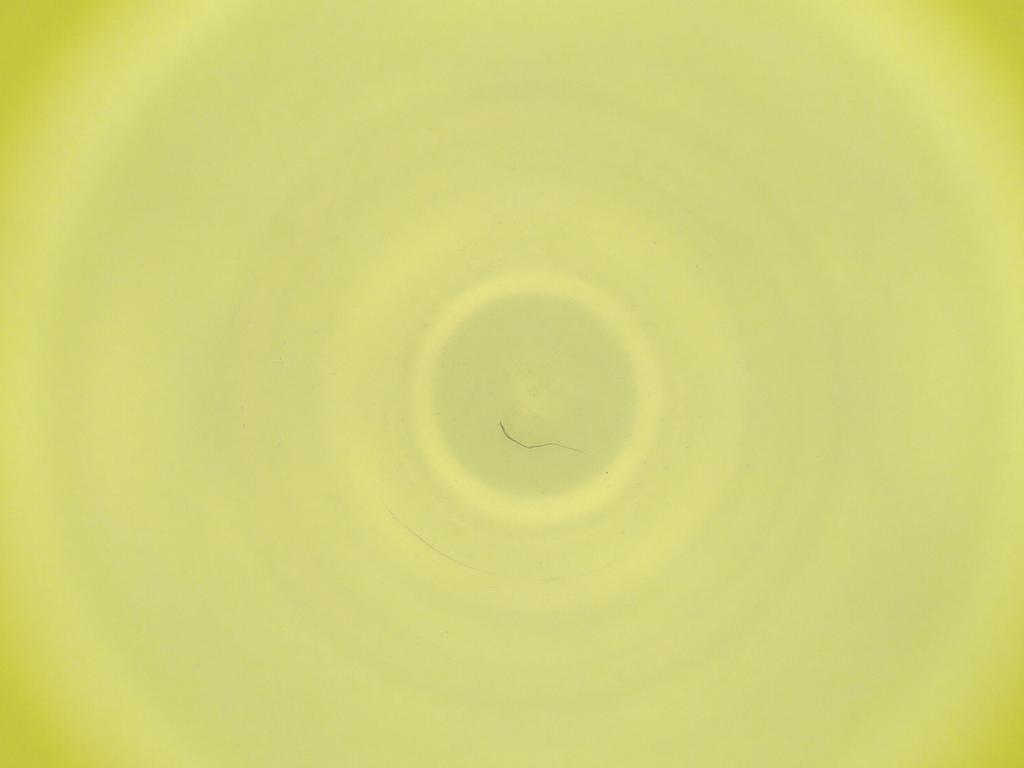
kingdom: Animalia
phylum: Arthropoda
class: Insecta
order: Diptera
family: Cecidomyiidae
